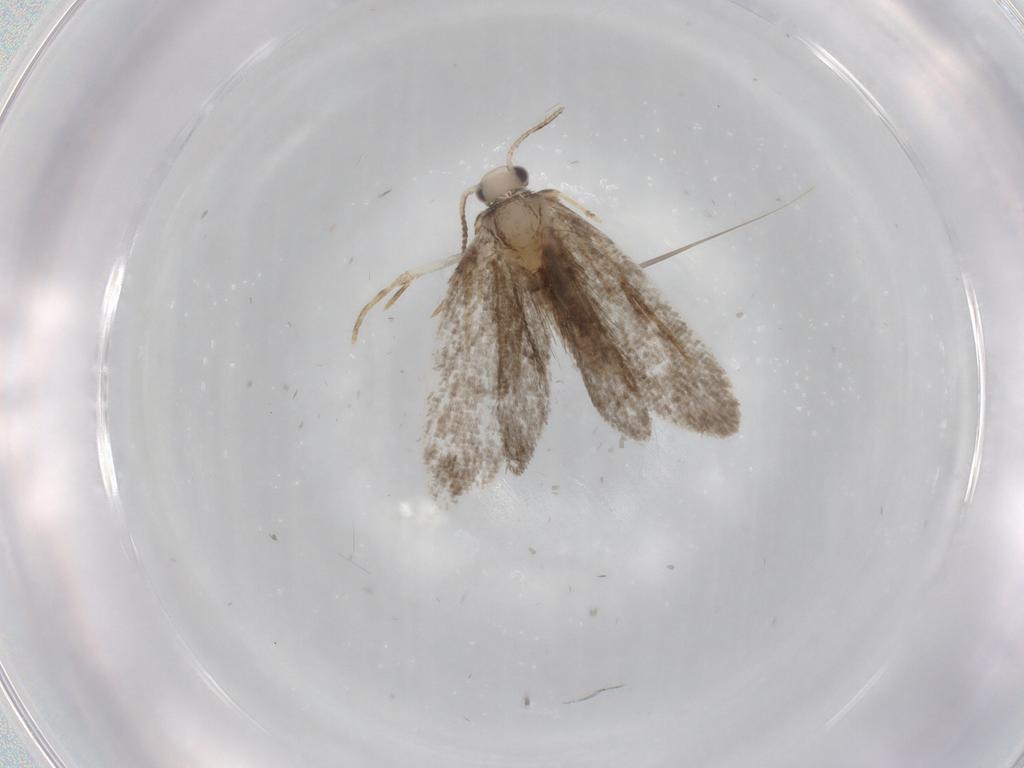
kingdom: Animalia
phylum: Arthropoda
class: Insecta
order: Lepidoptera
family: Psychidae
